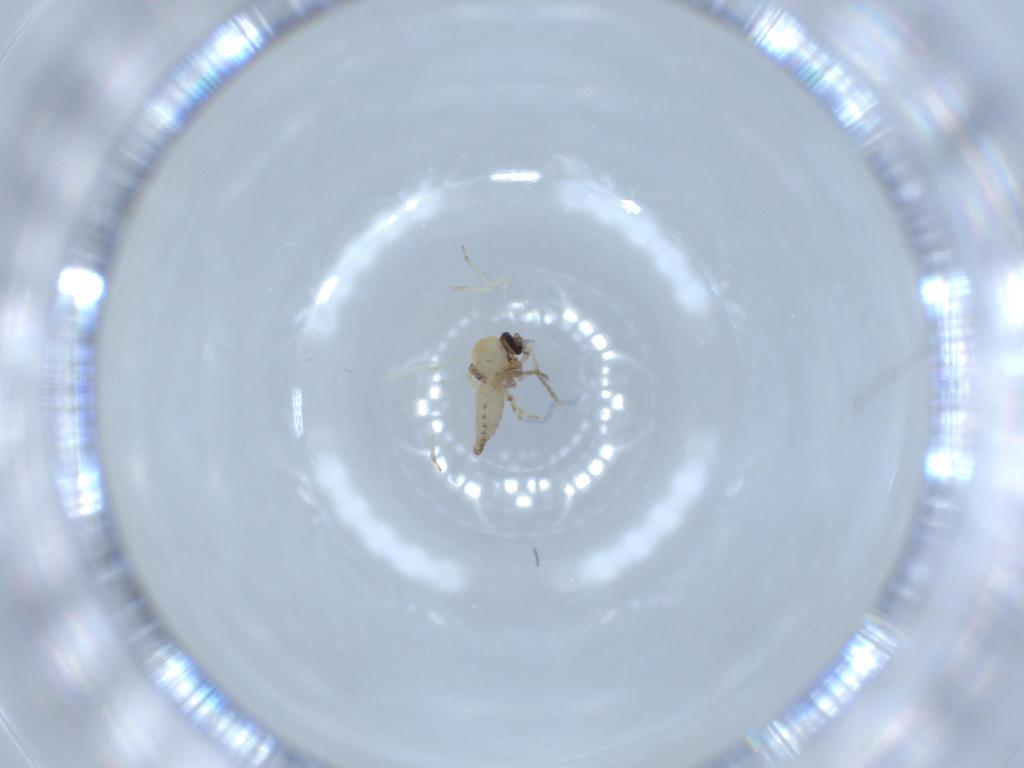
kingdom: Animalia
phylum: Arthropoda
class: Insecta
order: Diptera
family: Ceratopogonidae
